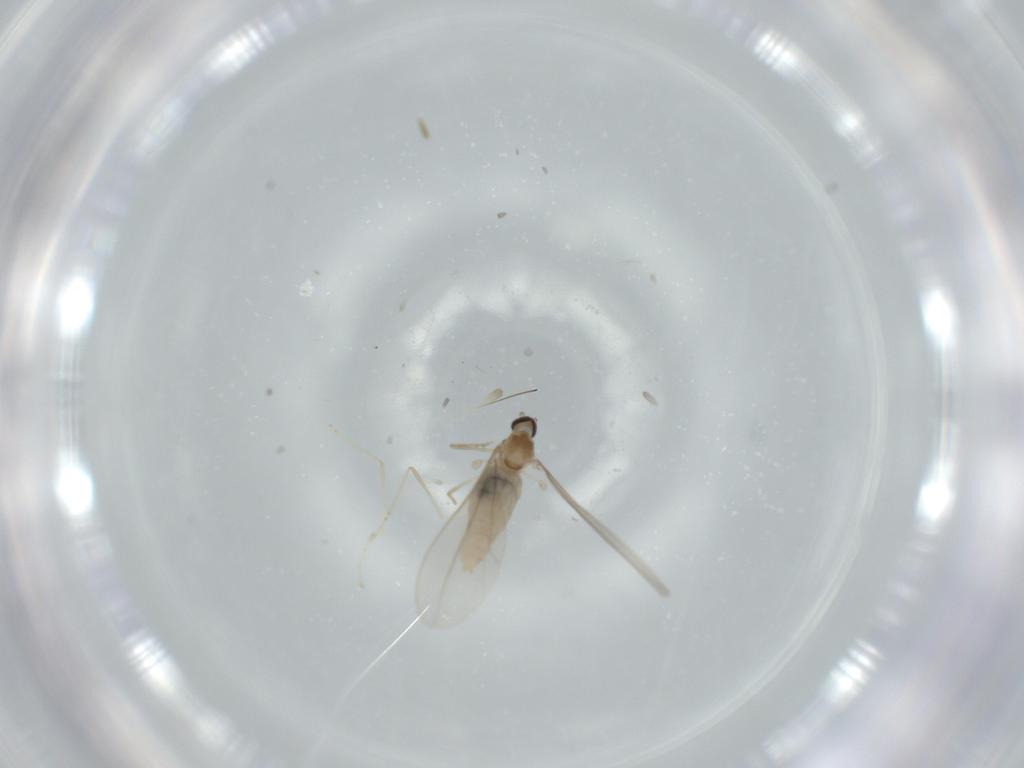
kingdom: Animalia
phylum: Arthropoda
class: Insecta
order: Diptera
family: Cecidomyiidae
